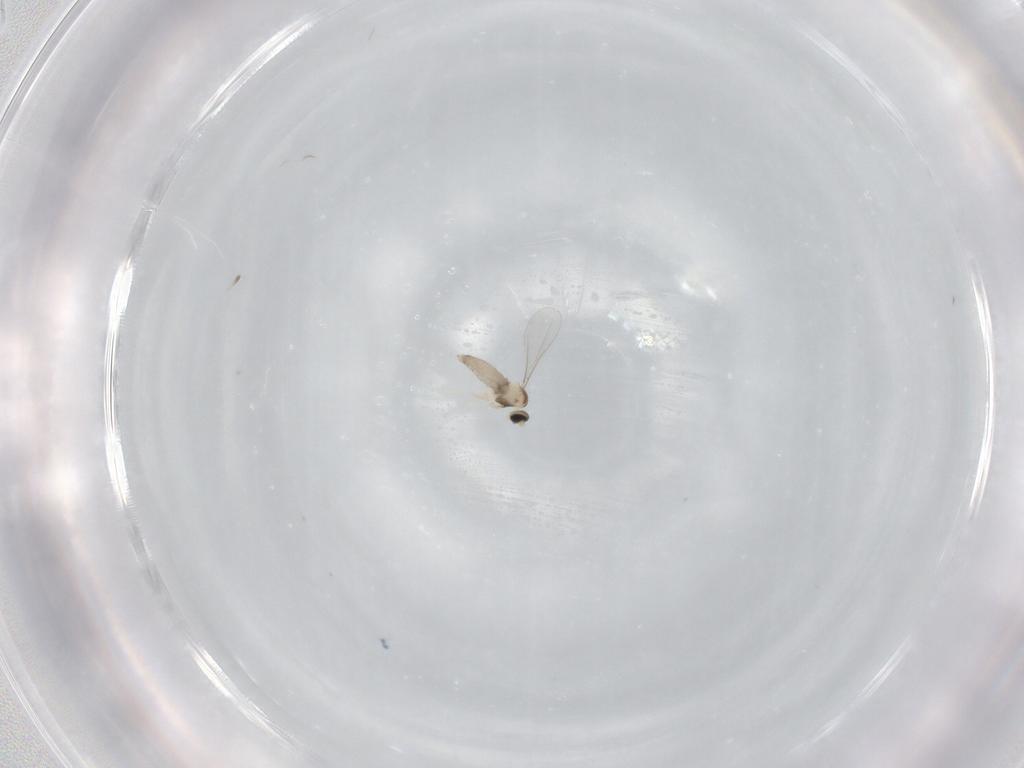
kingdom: Animalia
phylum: Arthropoda
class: Insecta
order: Diptera
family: Cecidomyiidae
